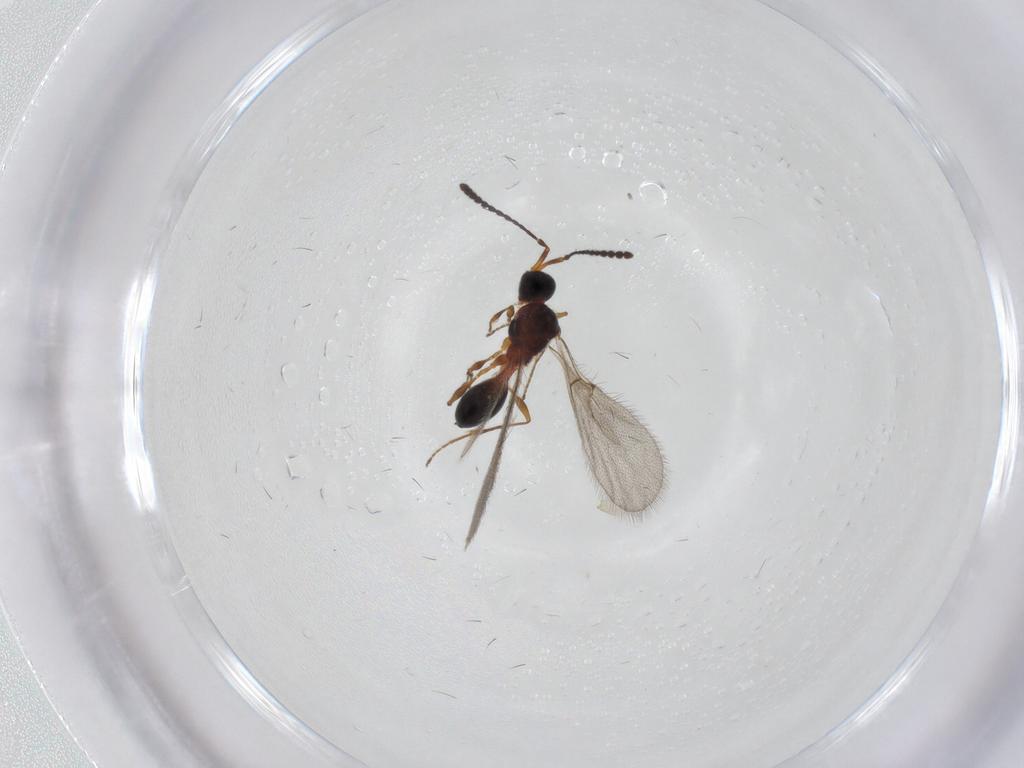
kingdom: Animalia
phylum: Arthropoda
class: Insecta
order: Hymenoptera
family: Diapriidae
